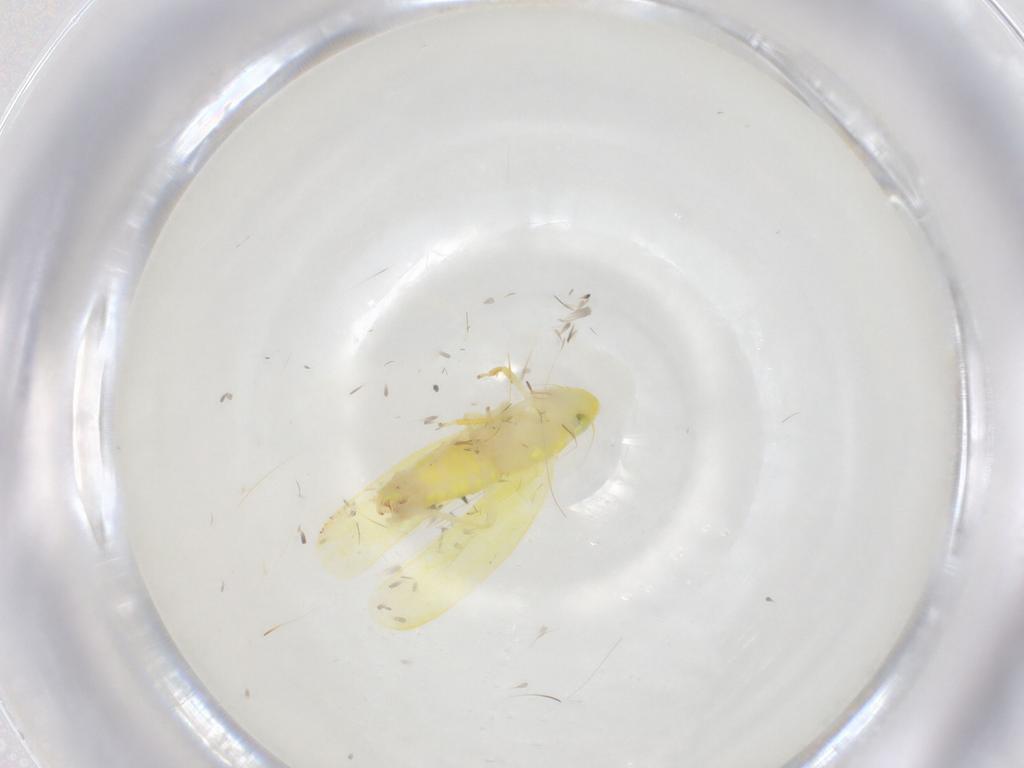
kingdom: Animalia
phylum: Arthropoda
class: Insecta
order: Hemiptera
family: Cicadellidae
